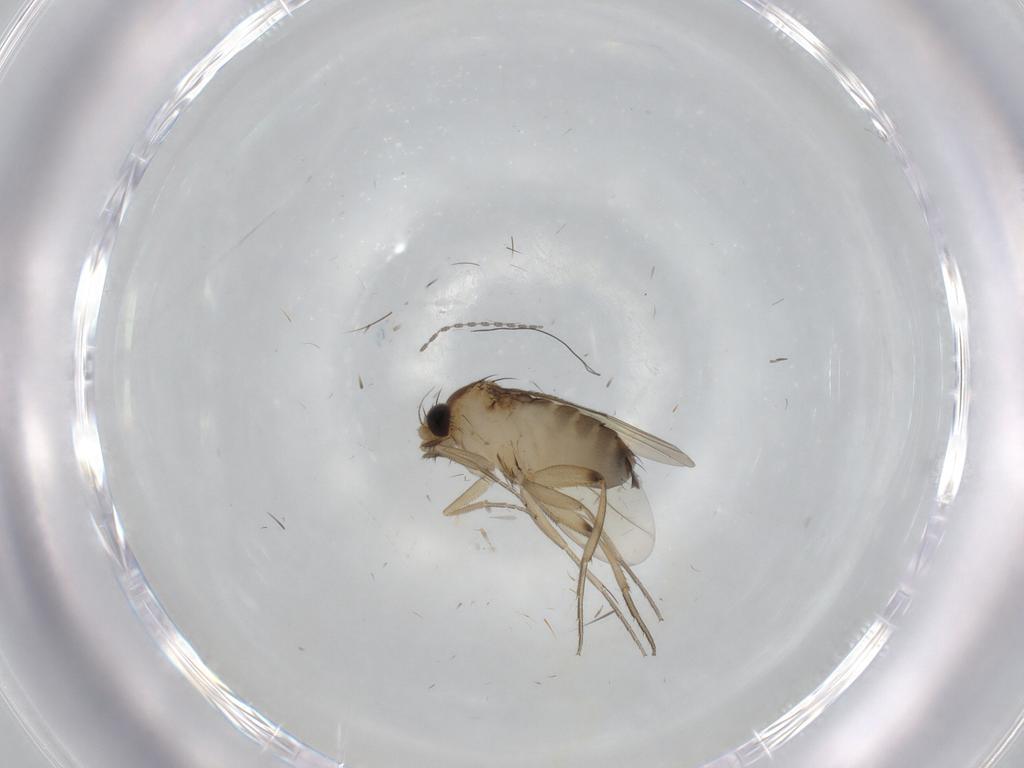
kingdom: Animalia
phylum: Arthropoda
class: Insecta
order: Diptera
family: Phoridae
